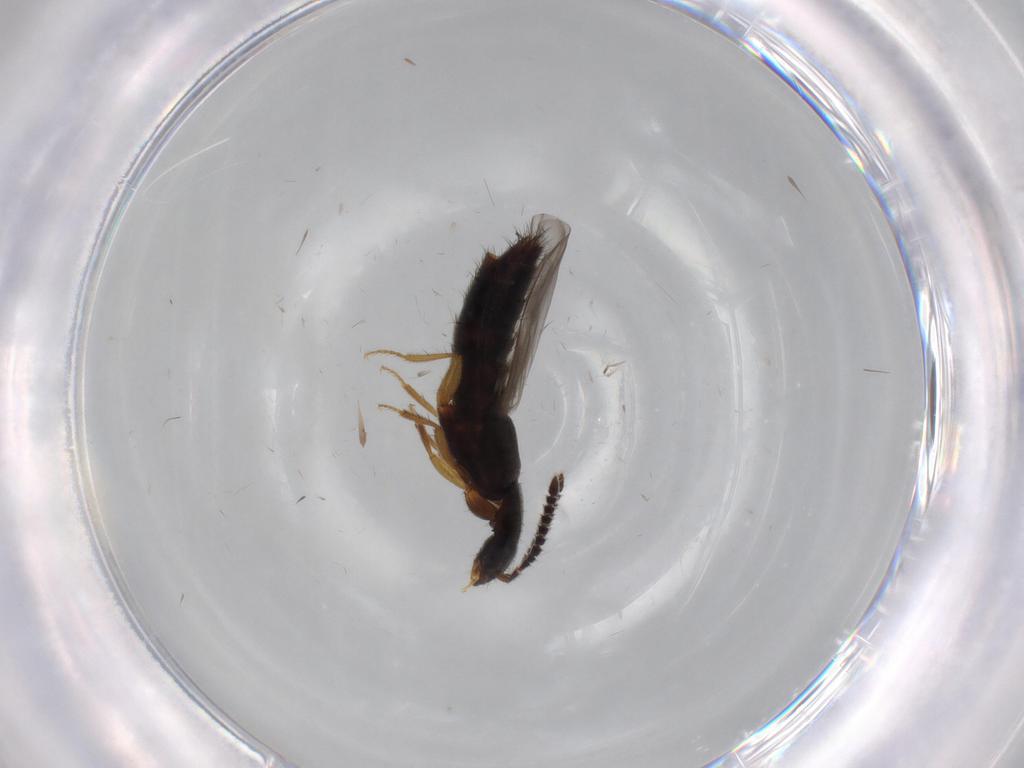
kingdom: Animalia
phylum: Arthropoda
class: Insecta
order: Coleoptera
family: Staphylinidae
